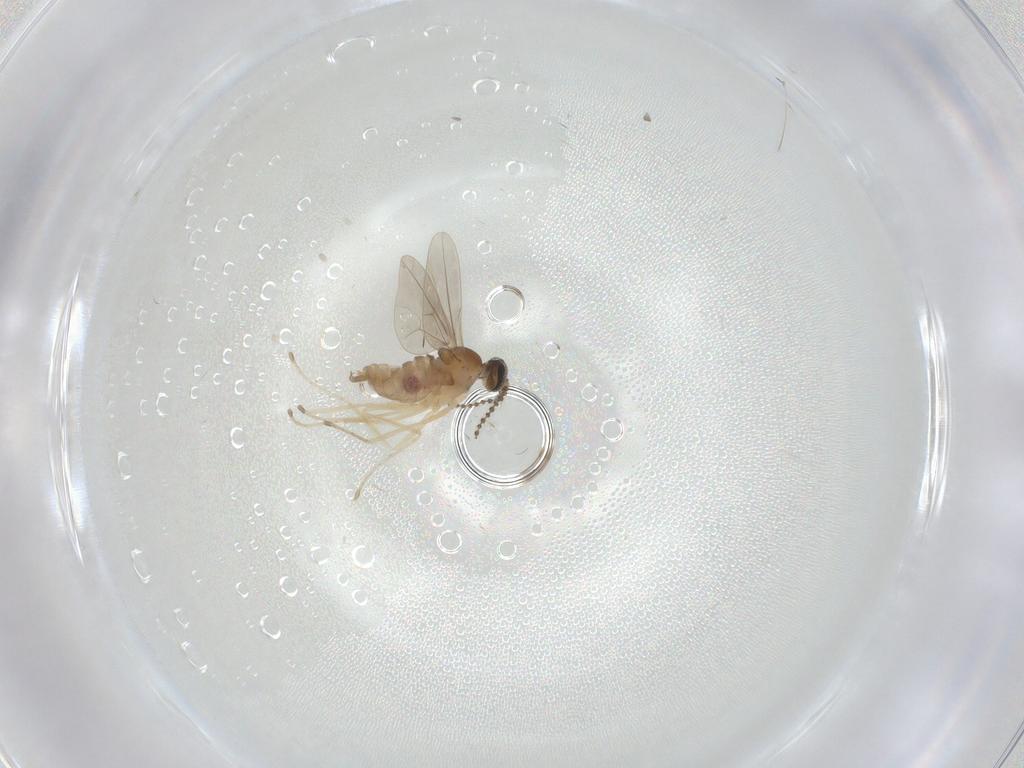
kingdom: Animalia
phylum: Arthropoda
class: Insecta
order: Diptera
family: Cecidomyiidae
